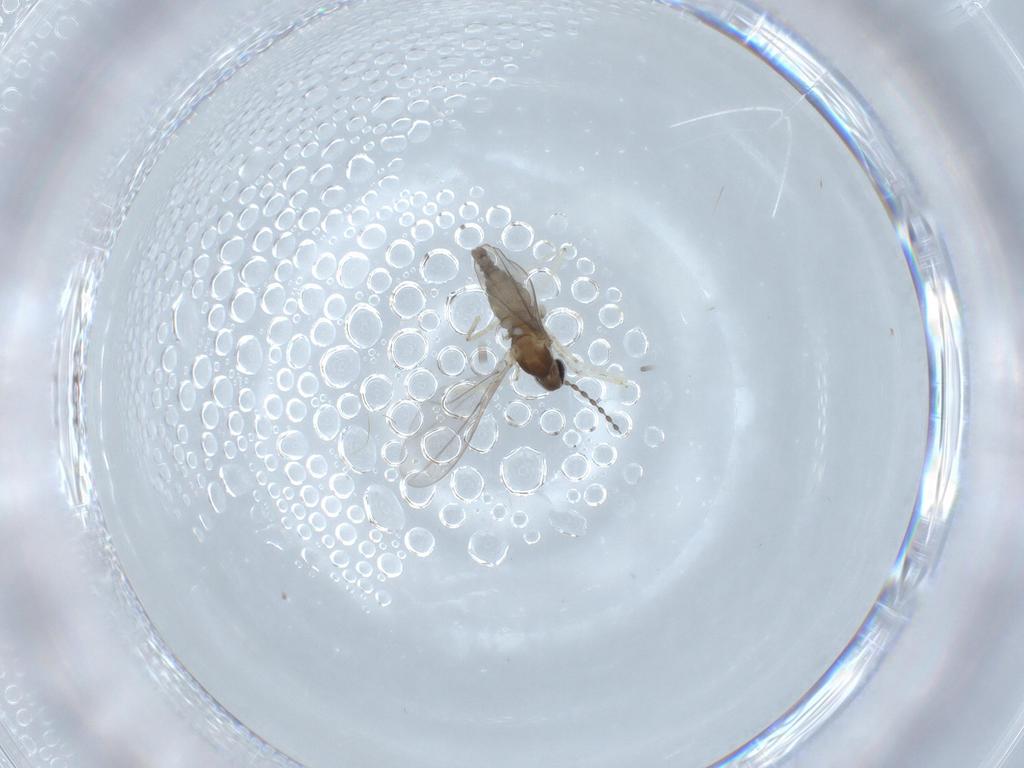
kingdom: Animalia
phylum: Arthropoda
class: Insecta
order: Diptera
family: Cecidomyiidae
